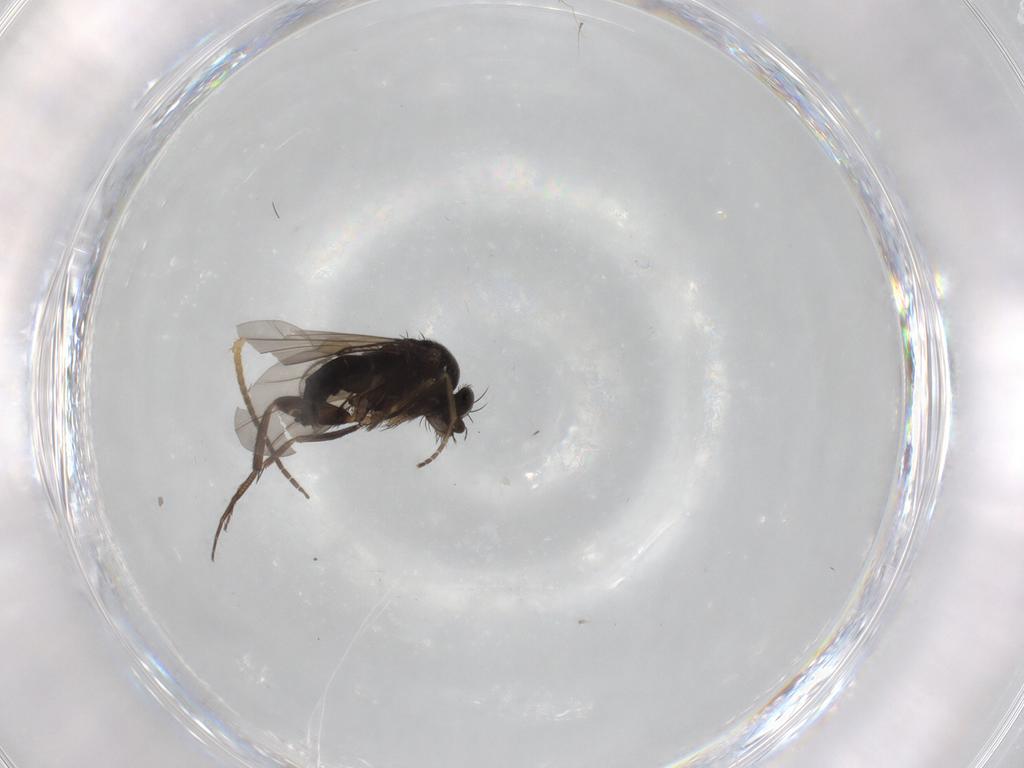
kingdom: Animalia
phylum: Arthropoda
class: Insecta
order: Diptera
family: Phoridae
